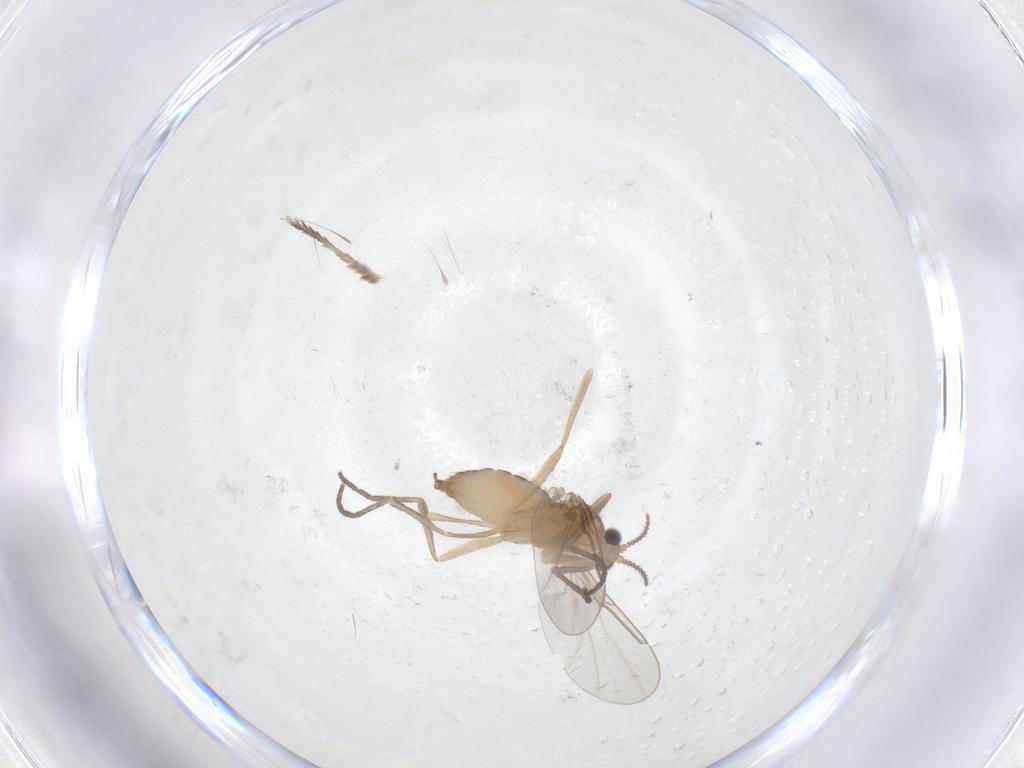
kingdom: Animalia
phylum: Arthropoda
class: Insecta
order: Diptera
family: Cecidomyiidae
